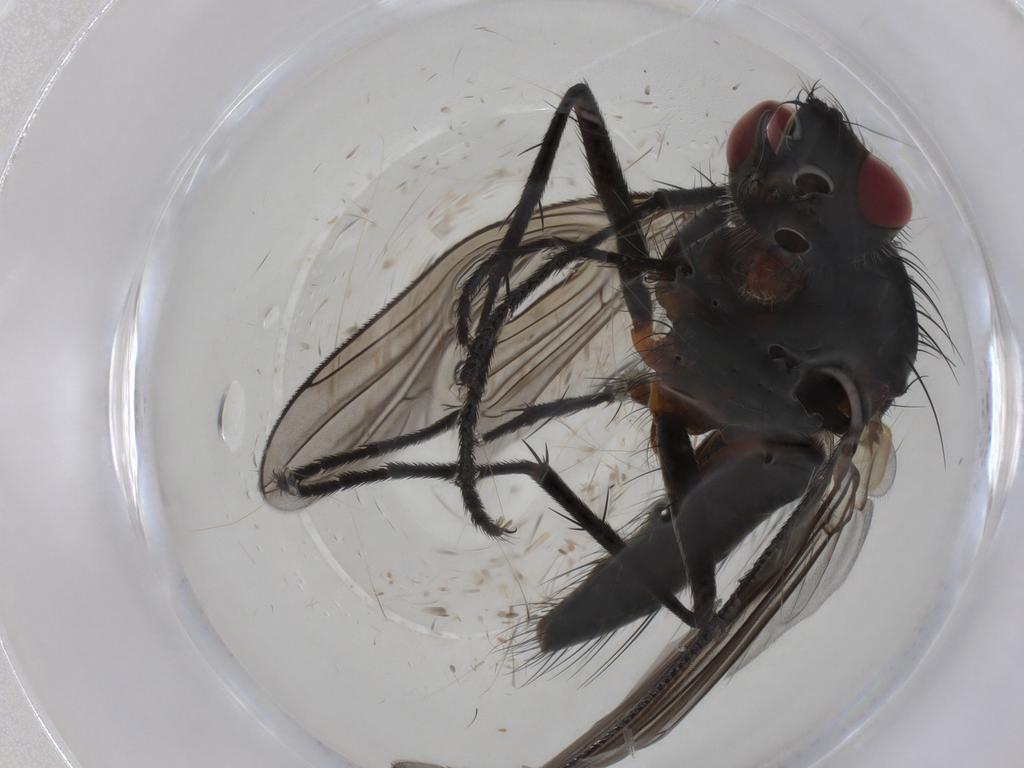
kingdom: Animalia
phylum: Arthropoda
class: Insecta
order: Diptera
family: Tachinidae
